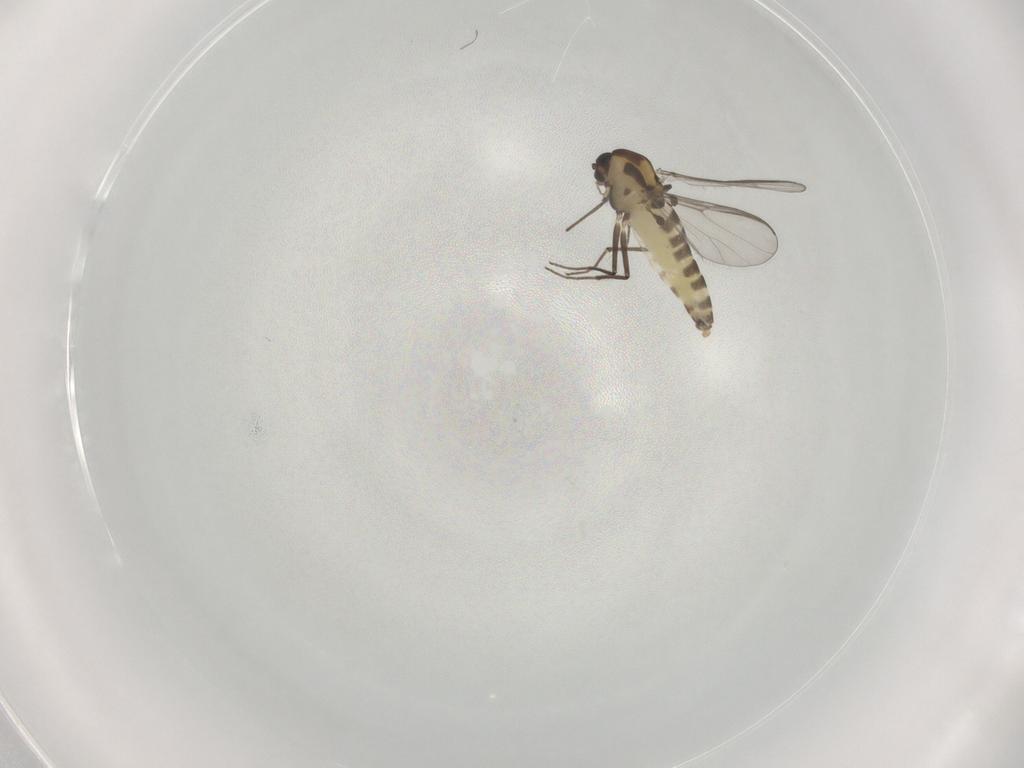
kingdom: Animalia
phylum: Arthropoda
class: Insecta
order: Diptera
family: Chironomidae
